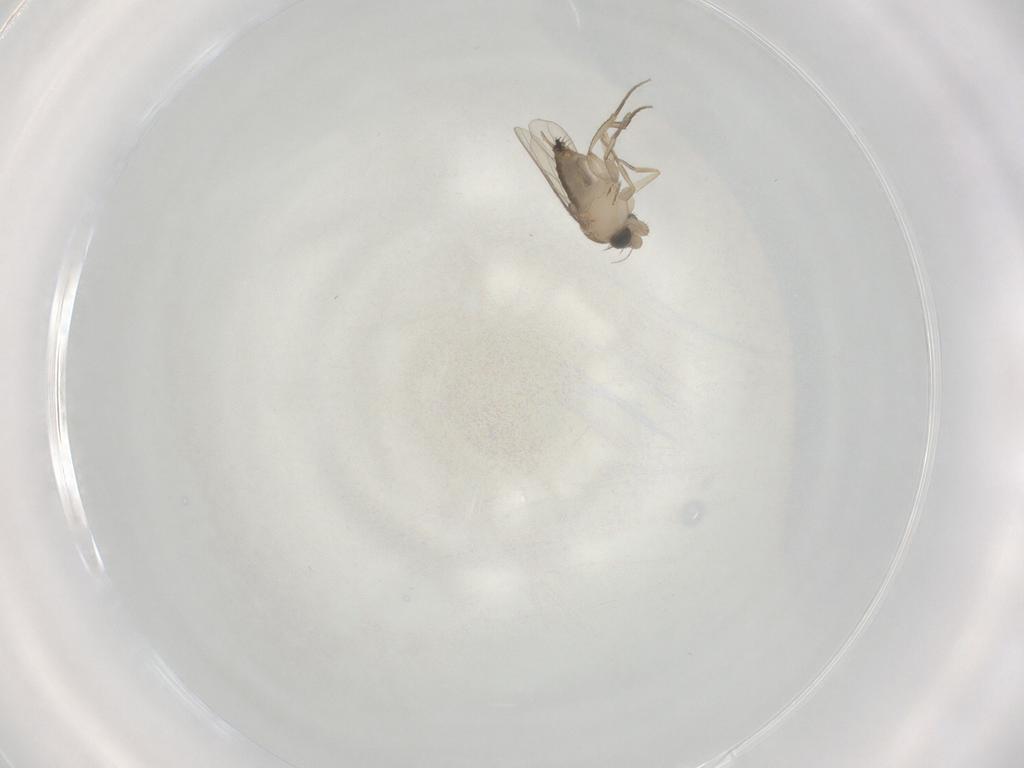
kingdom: Animalia
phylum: Arthropoda
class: Insecta
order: Diptera
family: Phoridae
